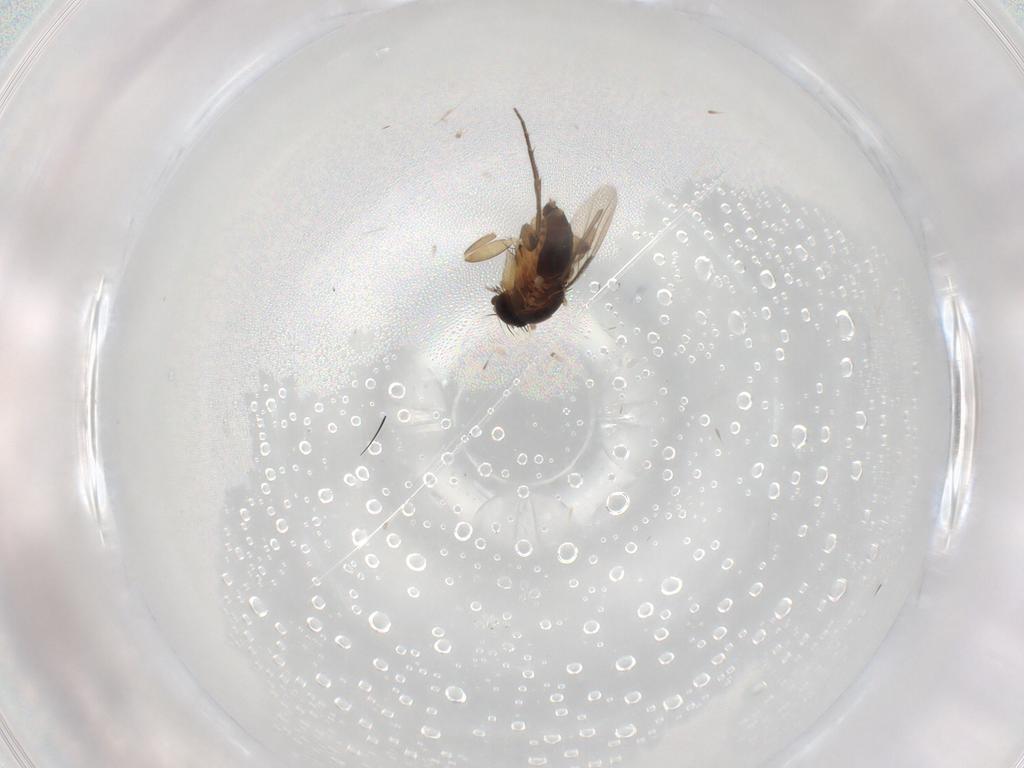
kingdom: Animalia
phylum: Arthropoda
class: Insecta
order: Diptera
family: Phoridae
